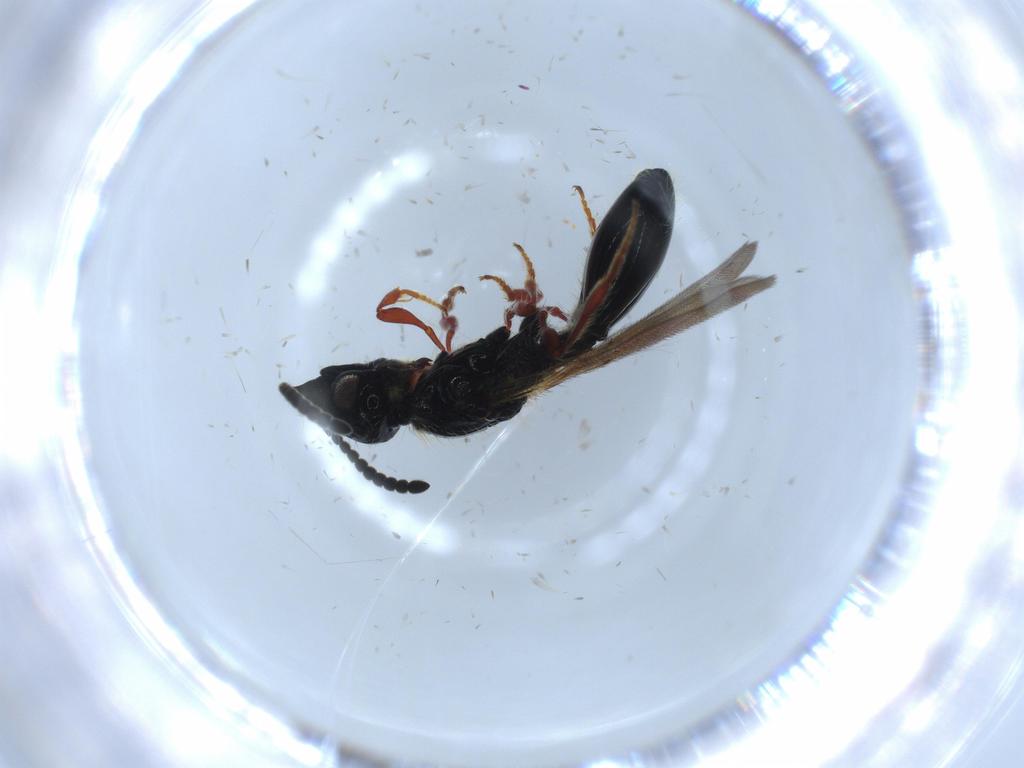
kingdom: Animalia
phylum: Arthropoda
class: Insecta
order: Hymenoptera
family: Diapriidae
